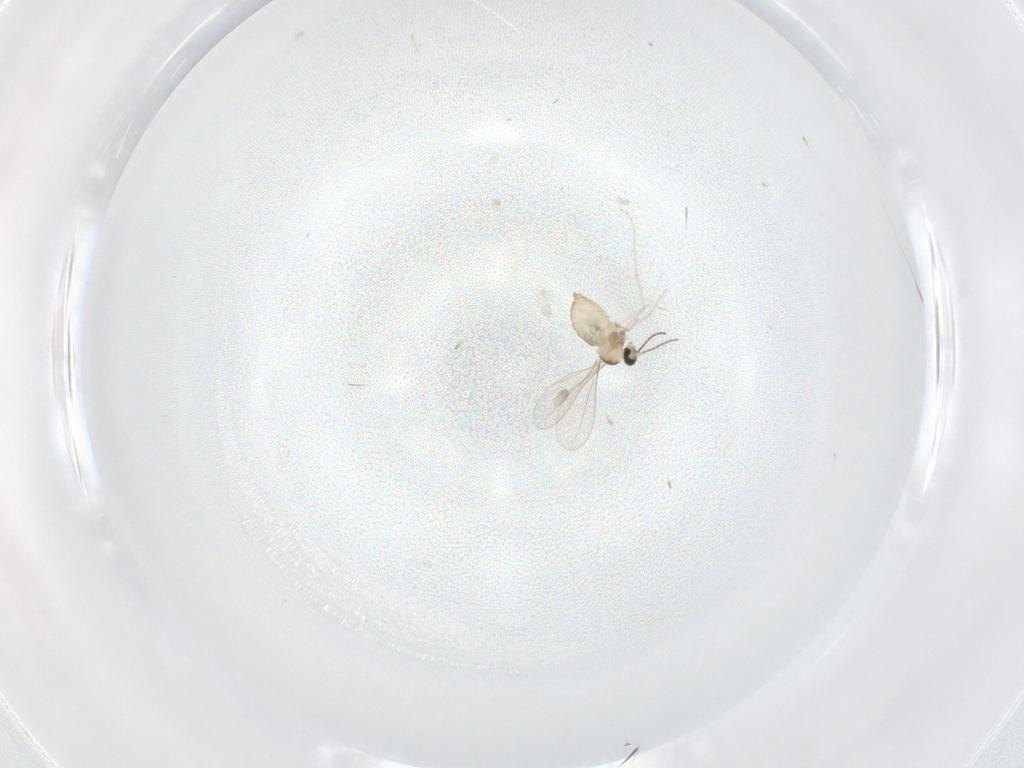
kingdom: Animalia
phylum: Arthropoda
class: Insecta
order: Diptera
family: Cecidomyiidae
